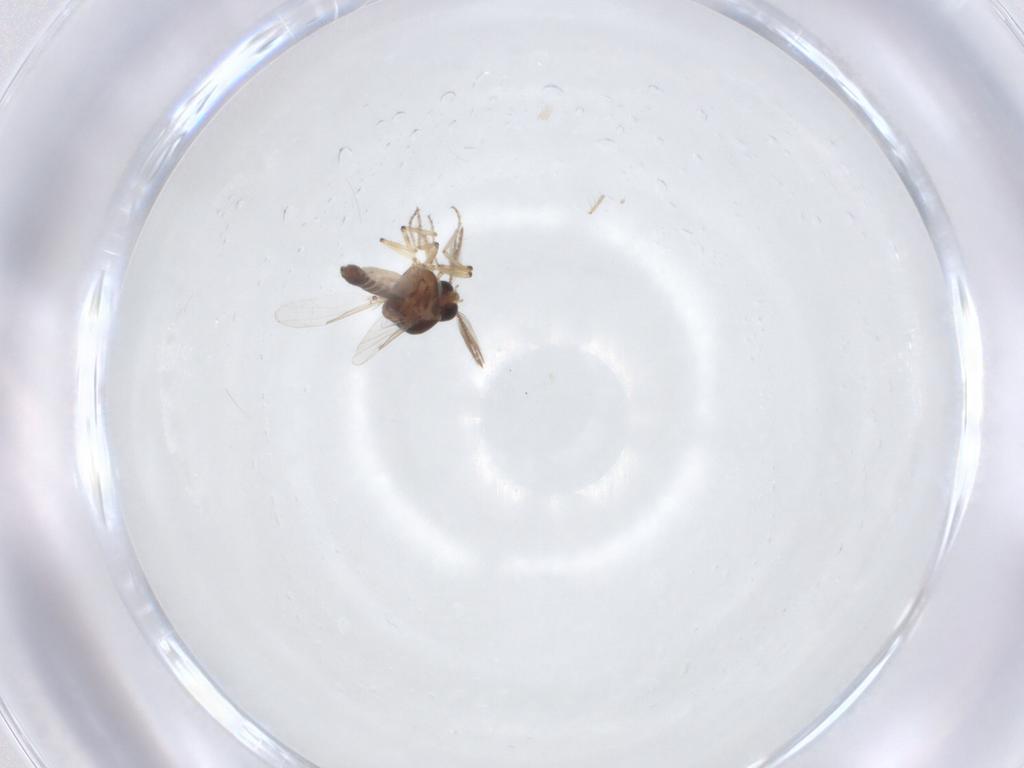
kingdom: Animalia
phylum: Arthropoda
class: Insecta
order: Diptera
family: Ceratopogonidae
